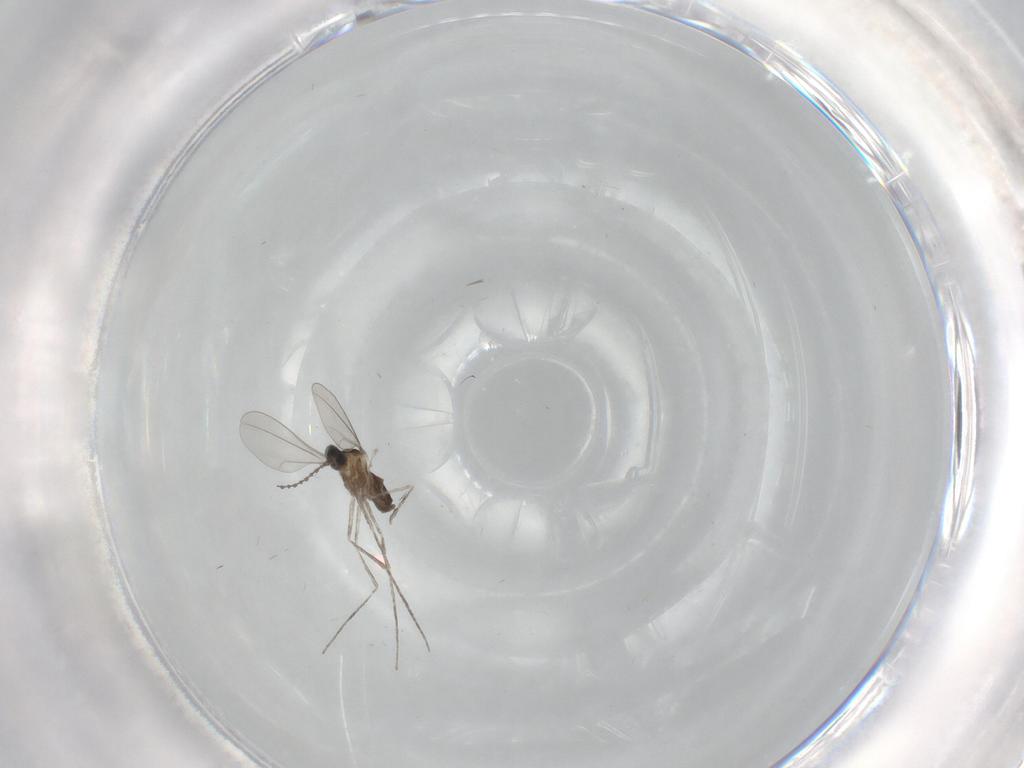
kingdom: Animalia
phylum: Arthropoda
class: Insecta
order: Diptera
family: Cecidomyiidae
